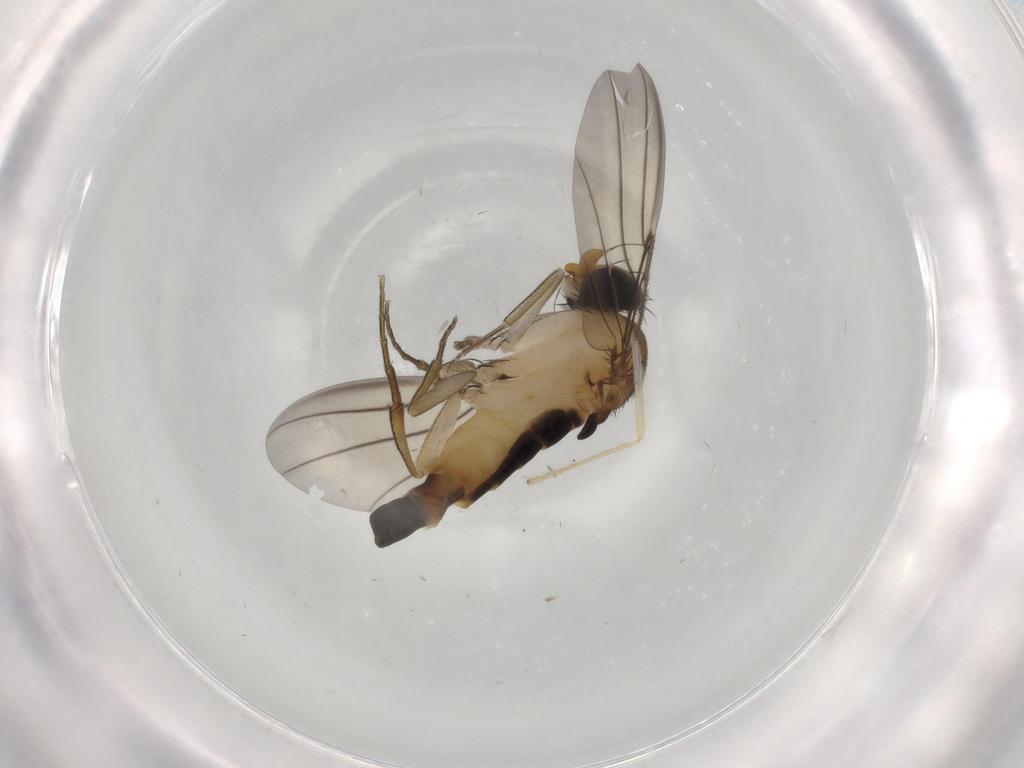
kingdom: Animalia
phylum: Arthropoda
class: Insecta
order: Diptera
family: Phoridae
